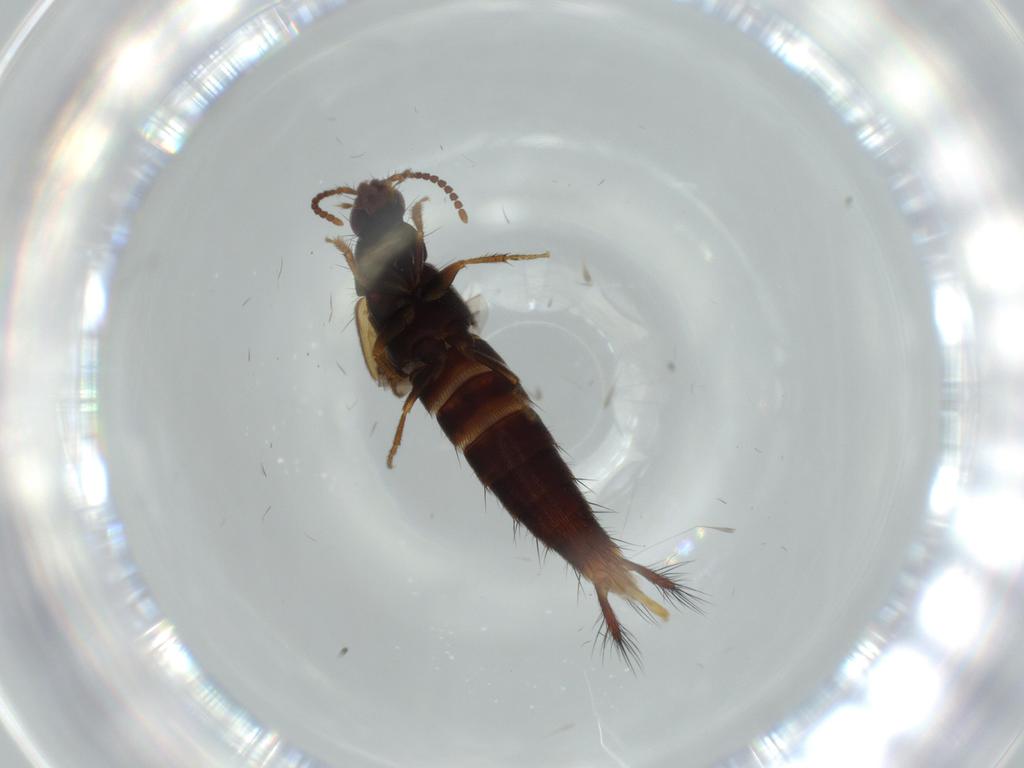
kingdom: Animalia
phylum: Arthropoda
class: Insecta
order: Coleoptera
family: Staphylinidae
